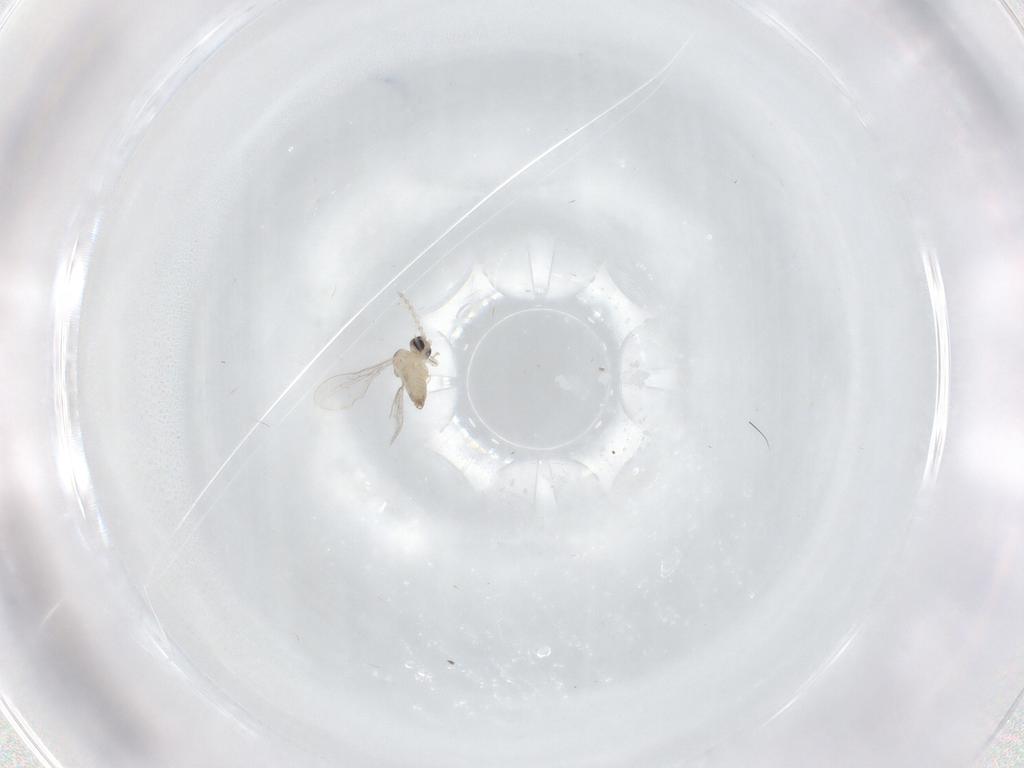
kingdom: Animalia
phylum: Arthropoda
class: Insecta
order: Diptera
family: Cecidomyiidae
